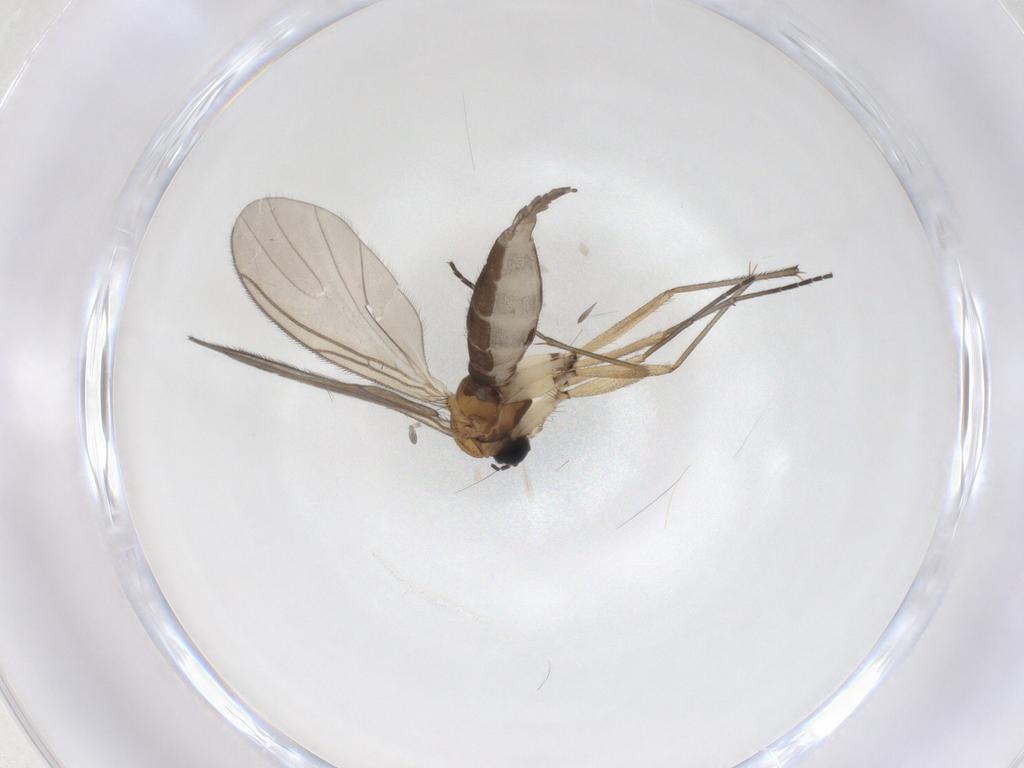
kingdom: Animalia
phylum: Arthropoda
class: Insecta
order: Diptera
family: Sciaridae
